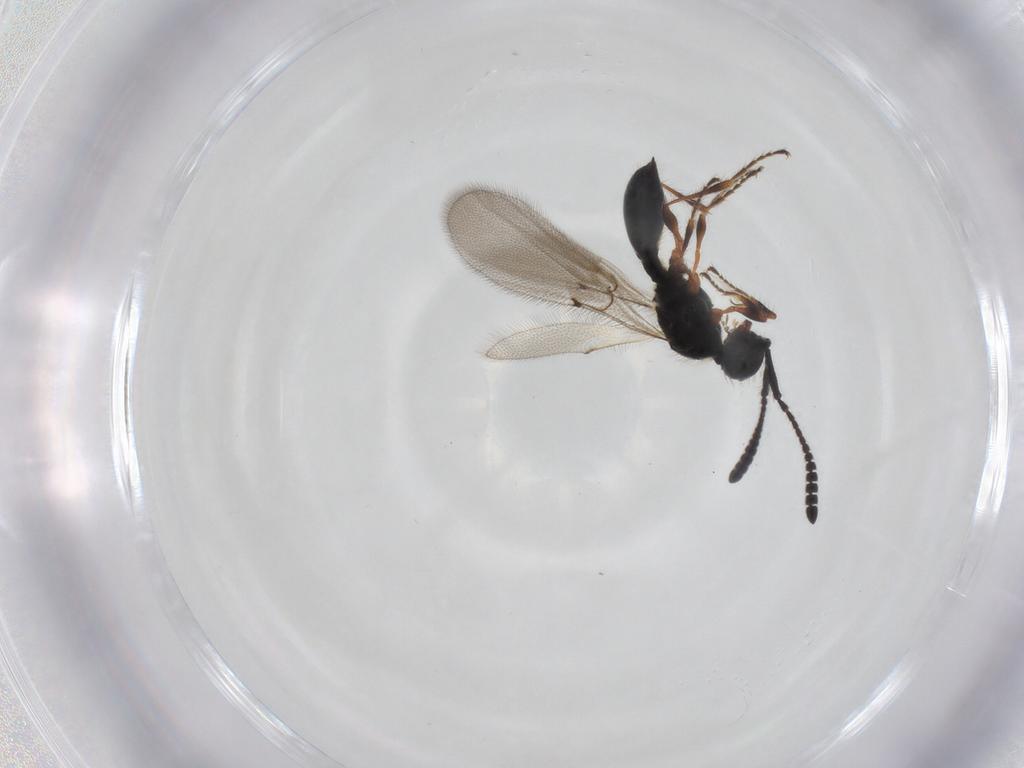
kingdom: Animalia
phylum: Arthropoda
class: Insecta
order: Hymenoptera
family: Diapriidae
